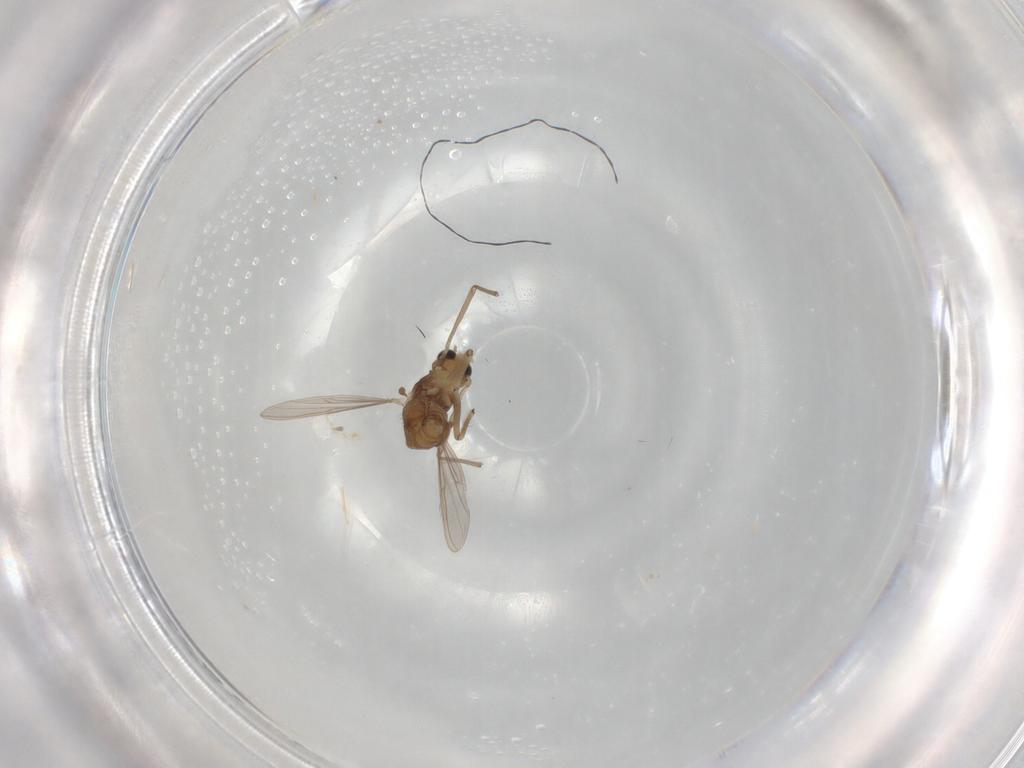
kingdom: Animalia
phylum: Arthropoda
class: Insecta
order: Diptera
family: Chironomidae
